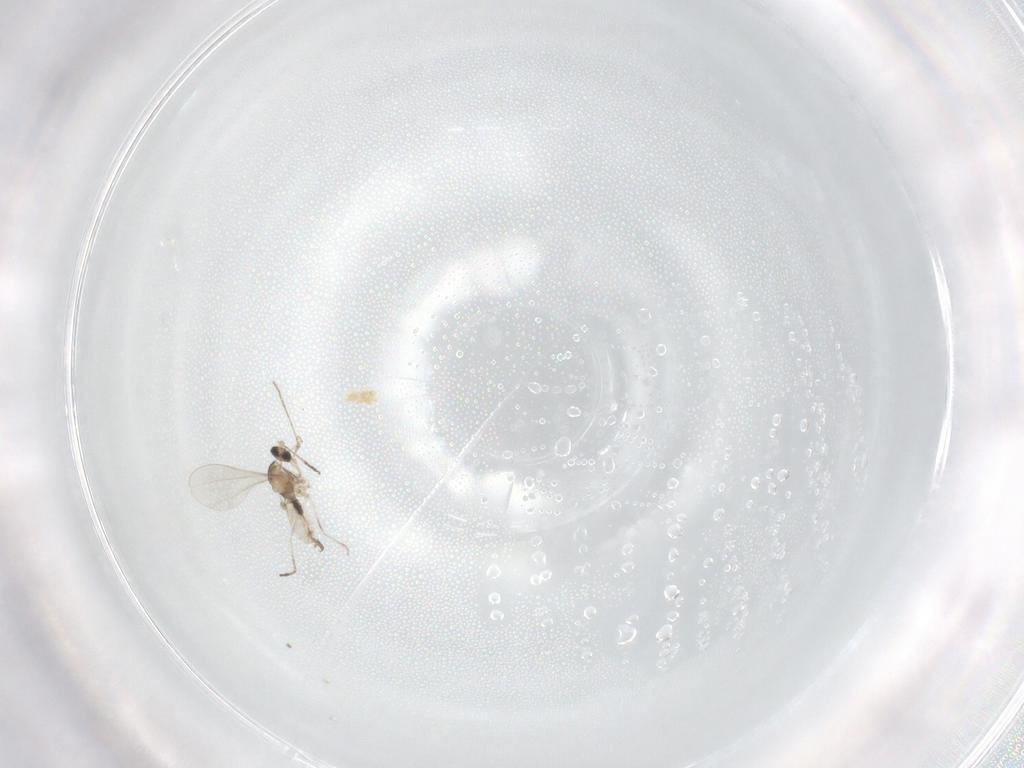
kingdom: Animalia
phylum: Arthropoda
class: Insecta
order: Diptera
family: Cecidomyiidae
